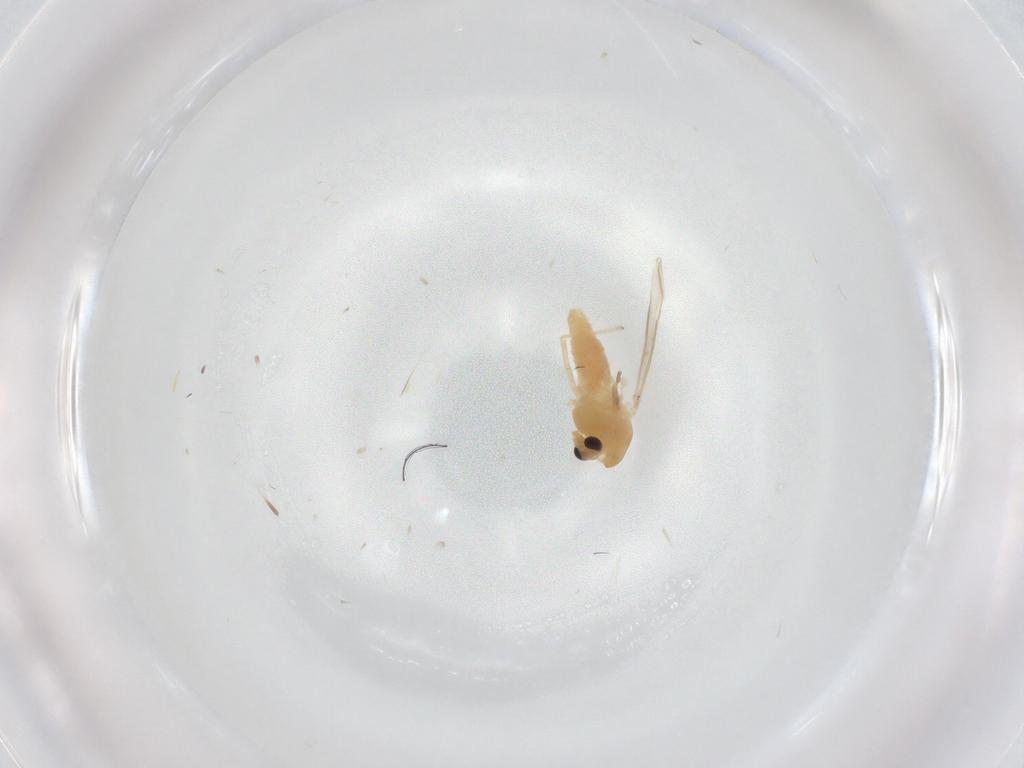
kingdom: Animalia
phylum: Arthropoda
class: Insecta
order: Diptera
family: Chironomidae
